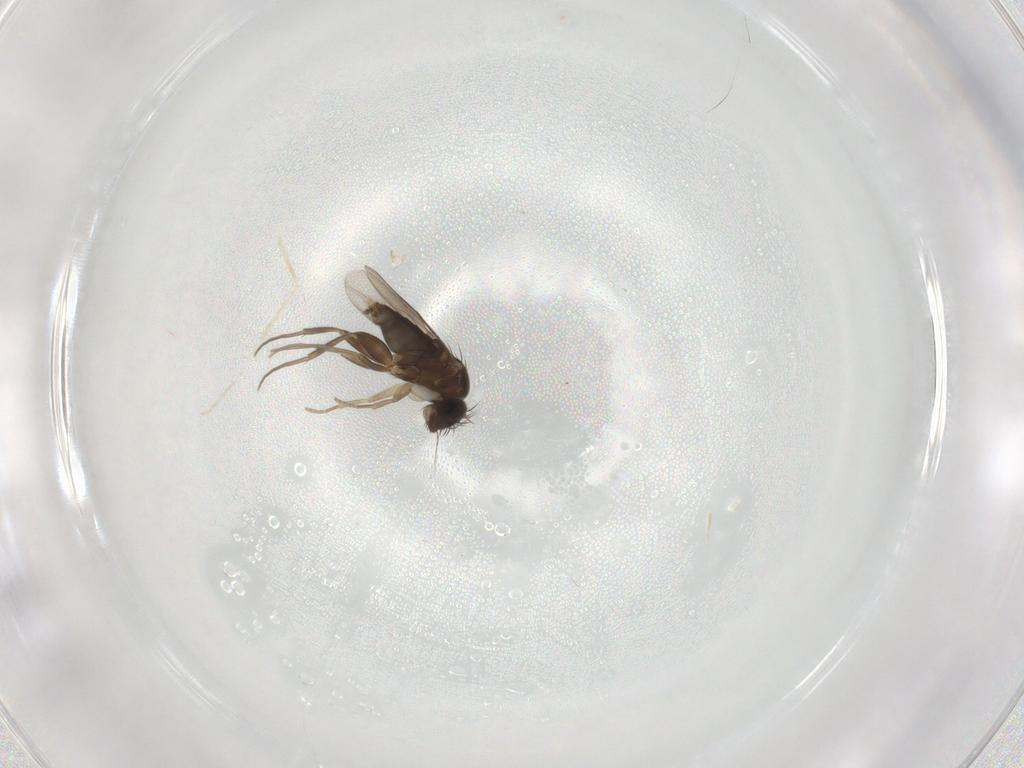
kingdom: Animalia
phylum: Arthropoda
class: Insecta
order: Diptera
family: Phoridae
